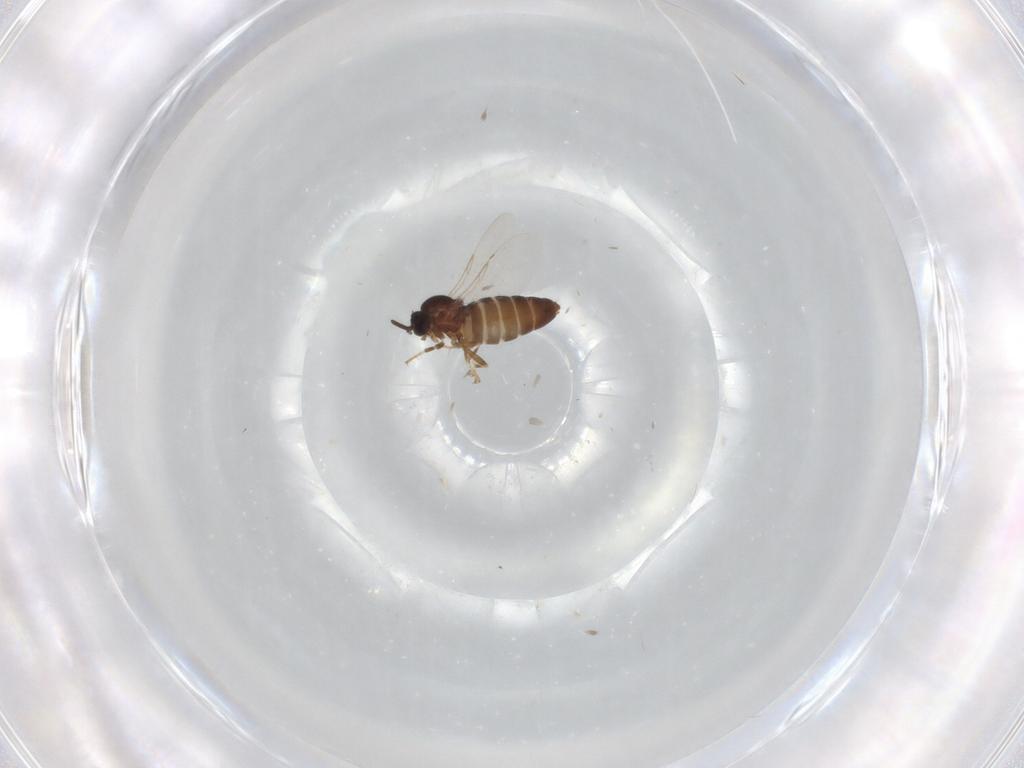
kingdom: Animalia
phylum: Arthropoda
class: Insecta
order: Diptera
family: Scatopsidae
